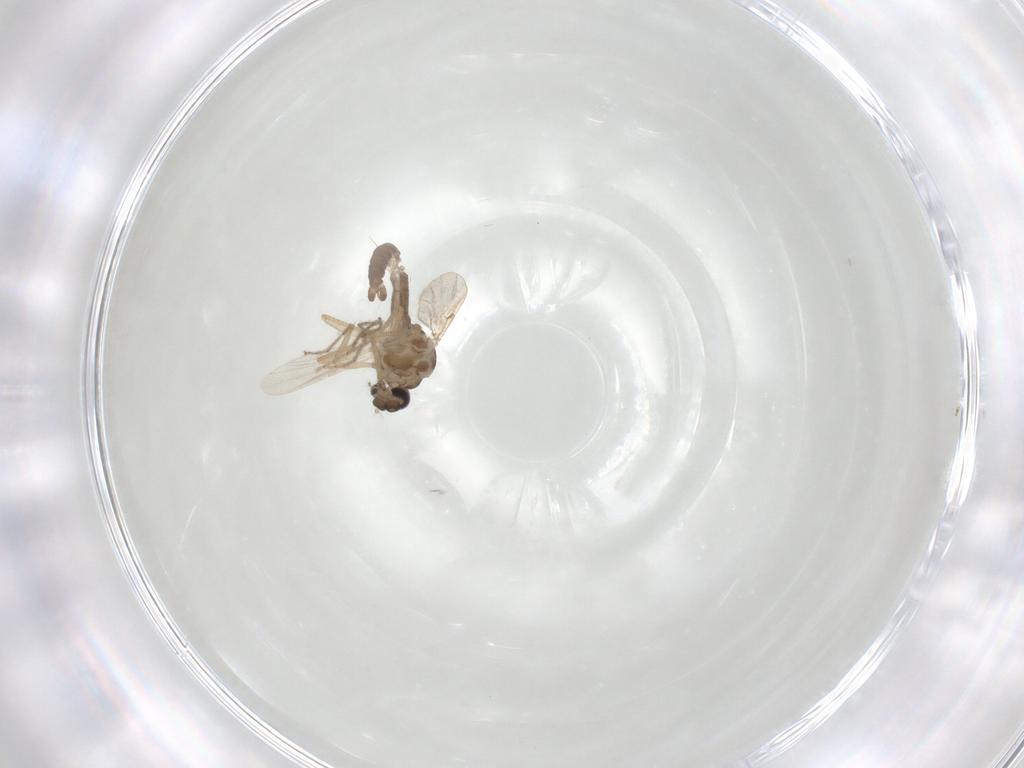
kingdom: Animalia
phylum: Arthropoda
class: Insecta
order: Diptera
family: Ceratopogonidae
